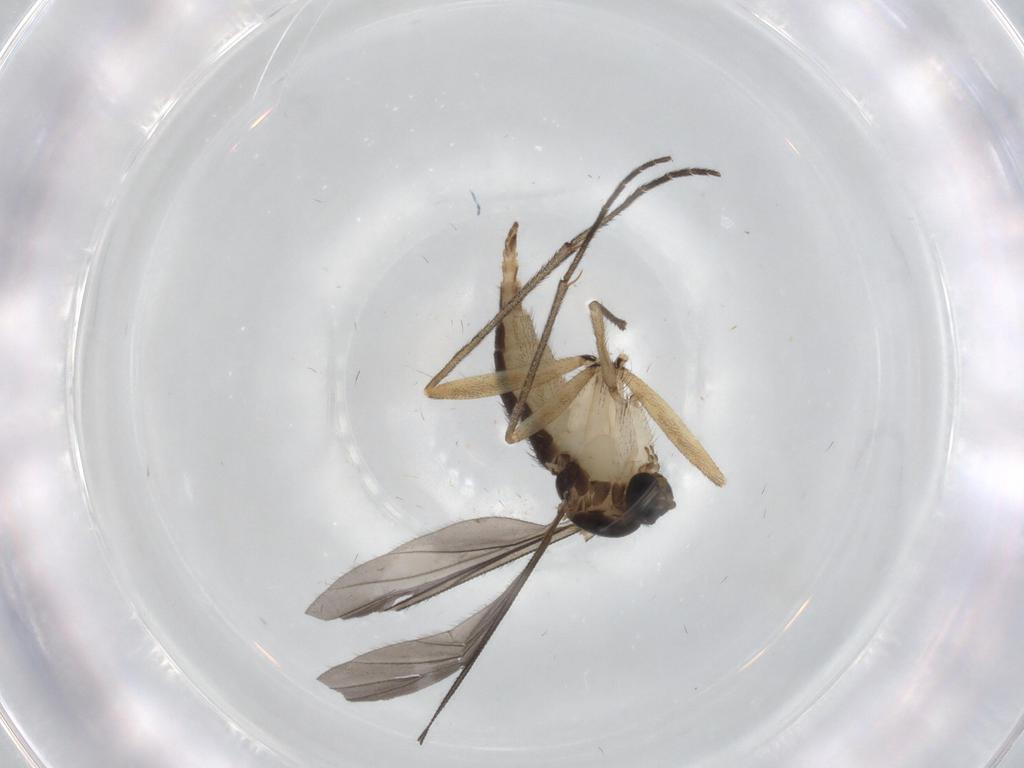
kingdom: Animalia
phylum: Arthropoda
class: Insecta
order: Diptera
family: Sciaridae
